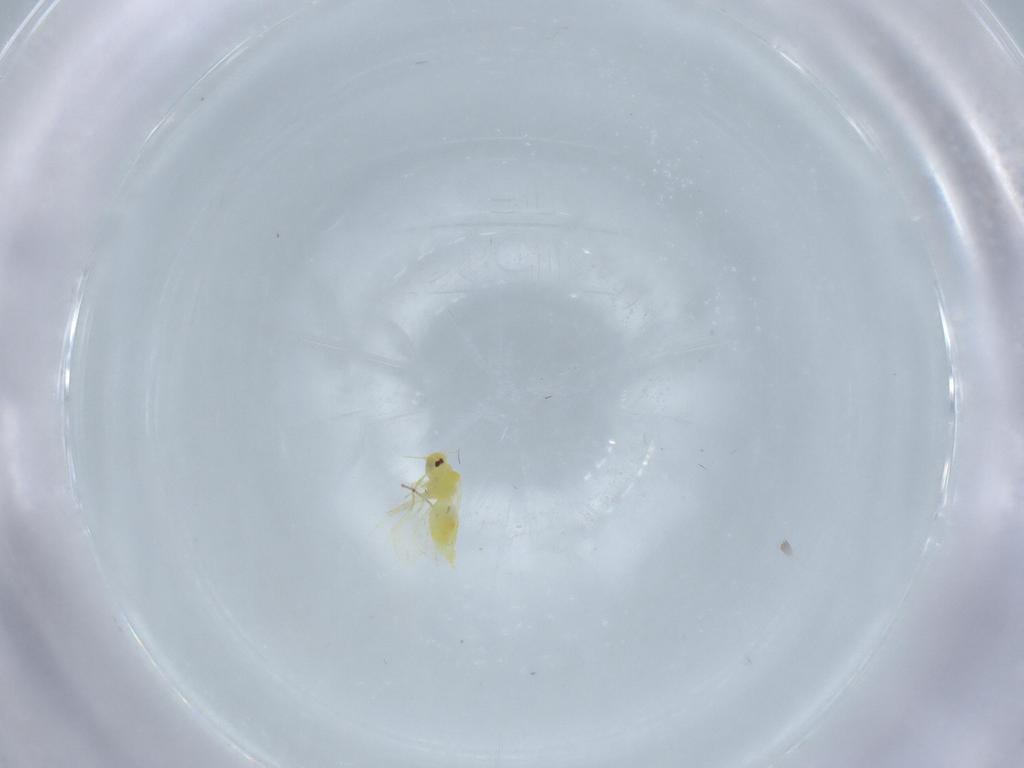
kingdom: Animalia
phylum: Arthropoda
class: Insecta
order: Hemiptera
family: Aleyrodidae
